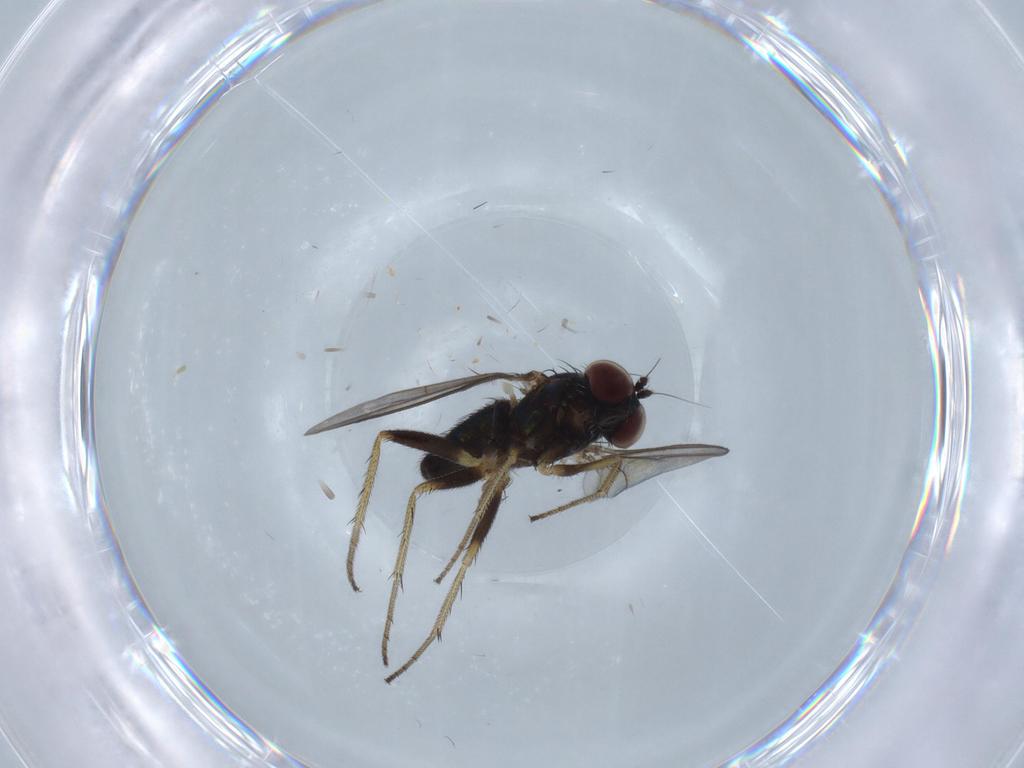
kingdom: Animalia
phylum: Arthropoda
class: Insecta
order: Diptera
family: Dolichopodidae
